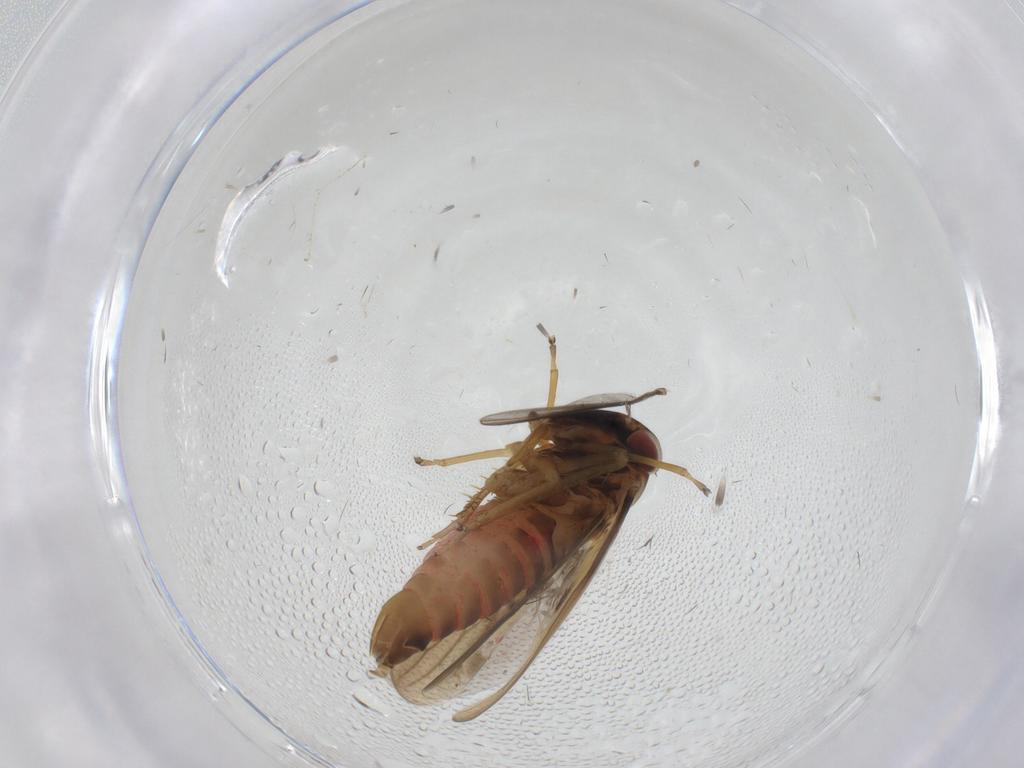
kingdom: Animalia
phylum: Arthropoda
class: Insecta
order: Hemiptera
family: Cicadellidae
